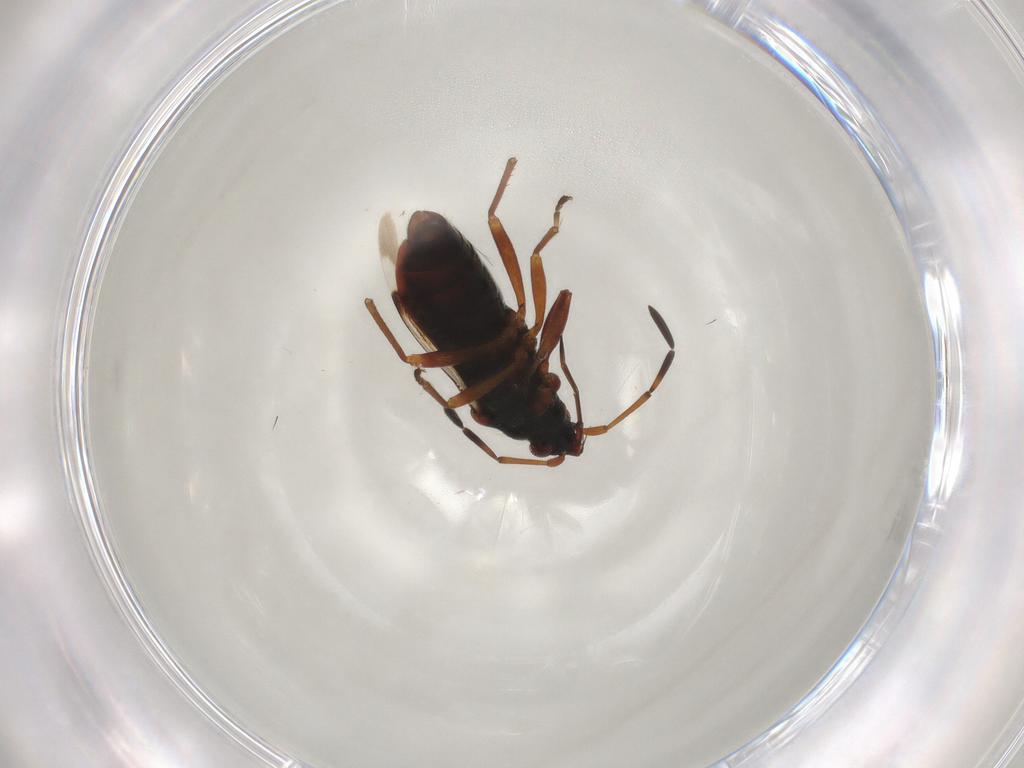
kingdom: Animalia
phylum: Arthropoda
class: Insecta
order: Hemiptera
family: Rhyparochromidae
